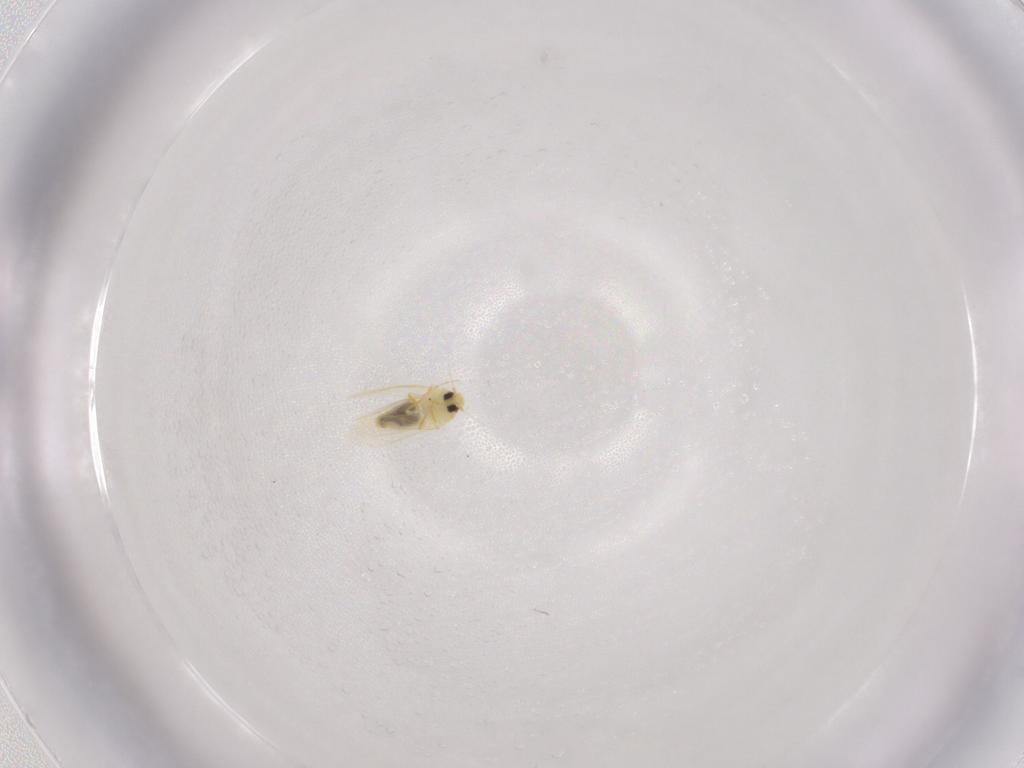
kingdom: Animalia
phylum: Arthropoda
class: Insecta
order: Hemiptera
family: Aleyrodidae
